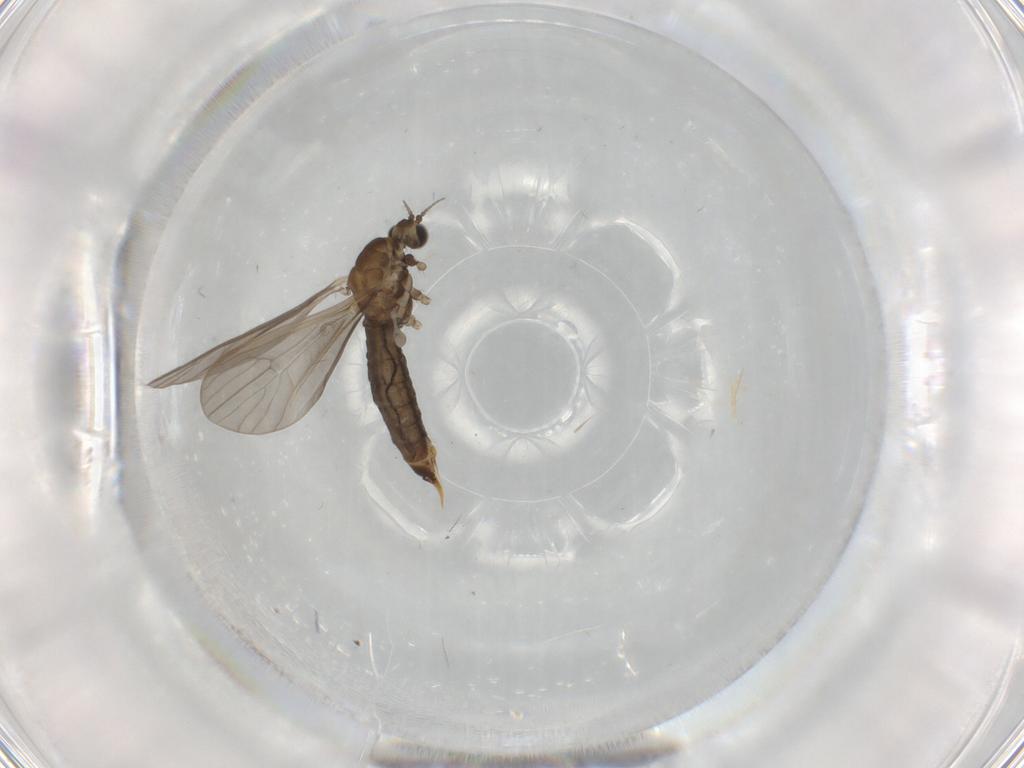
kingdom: Animalia
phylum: Arthropoda
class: Insecta
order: Diptera
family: Limoniidae
